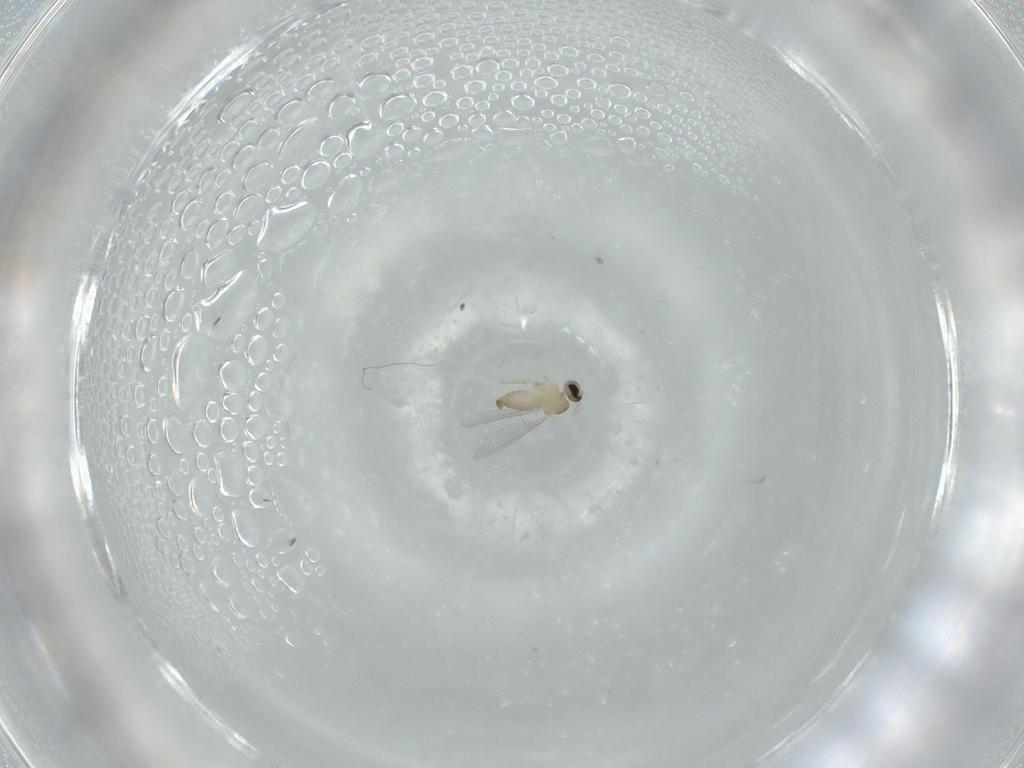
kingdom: Animalia
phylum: Arthropoda
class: Insecta
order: Diptera
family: Cecidomyiidae
